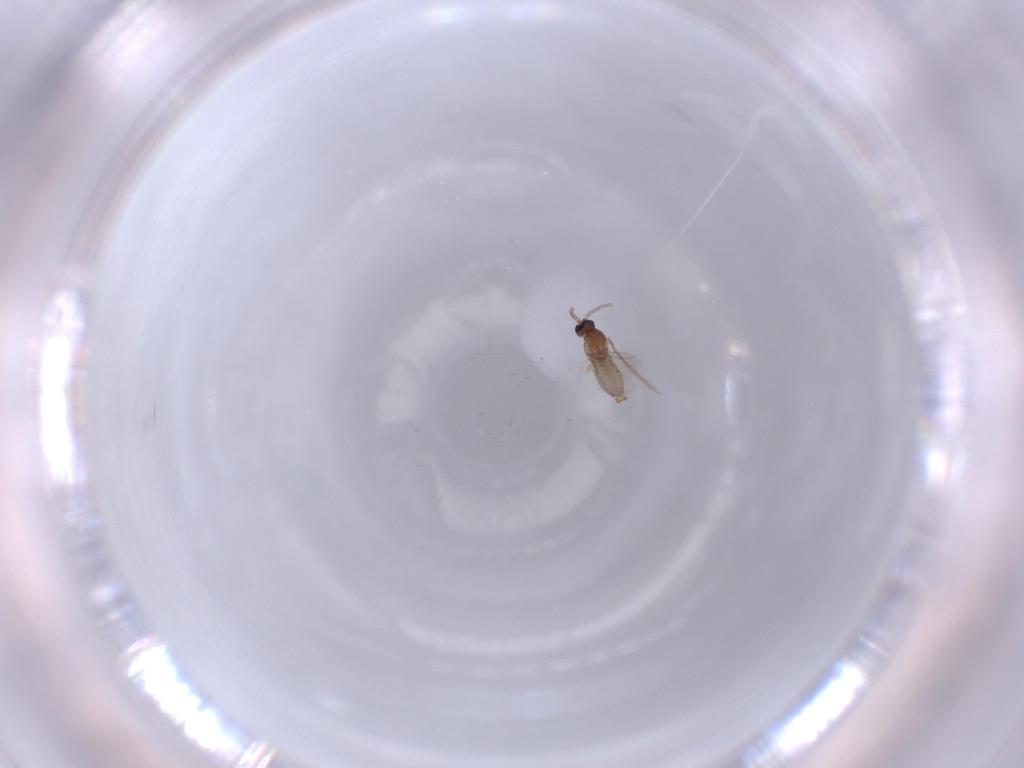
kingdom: Animalia
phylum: Arthropoda
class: Insecta
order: Diptera
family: Cecidomyiidae
